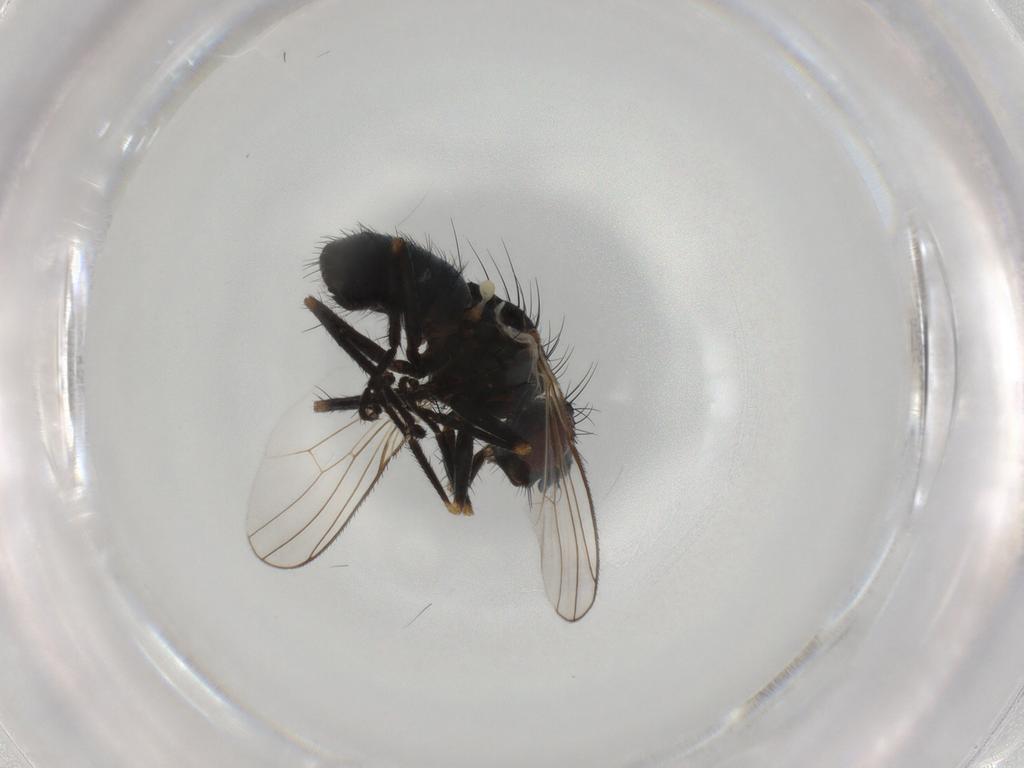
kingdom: Animalia
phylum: Arthropoda
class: Insecta
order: Diptera
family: Muscidae
